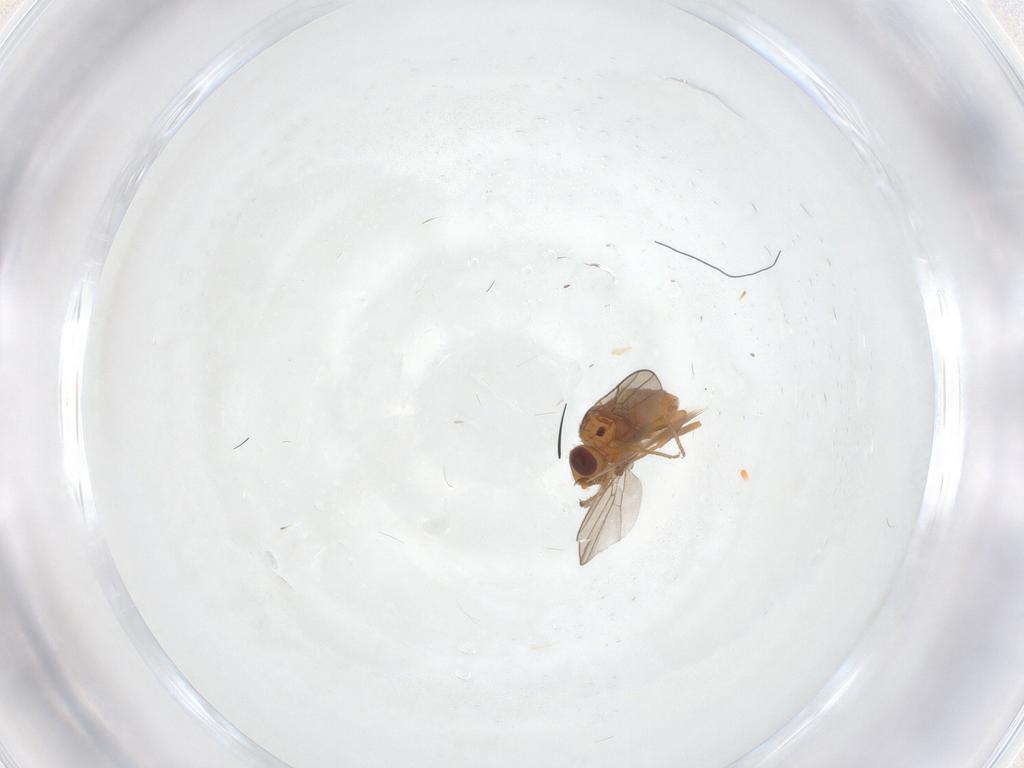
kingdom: Animalia
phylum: Arthropoda
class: Insecta
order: Diptera
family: Chloropidae
